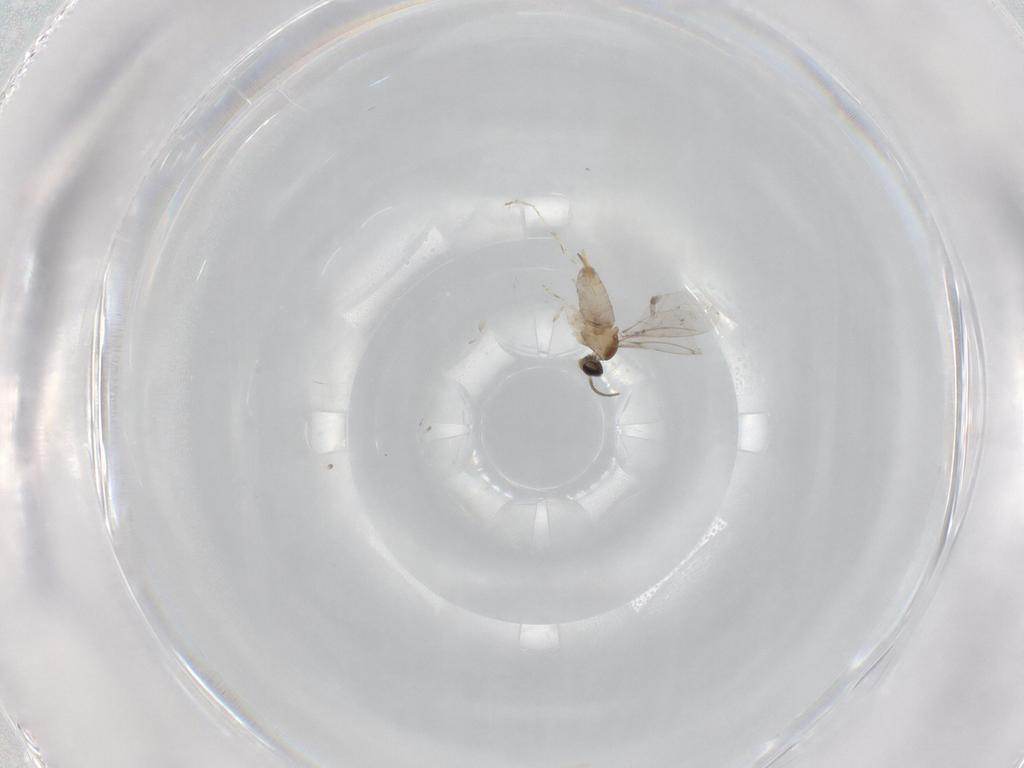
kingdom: Animalia
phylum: Arthropoda
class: Insecta
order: Diptera
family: Cecidomyiidae
